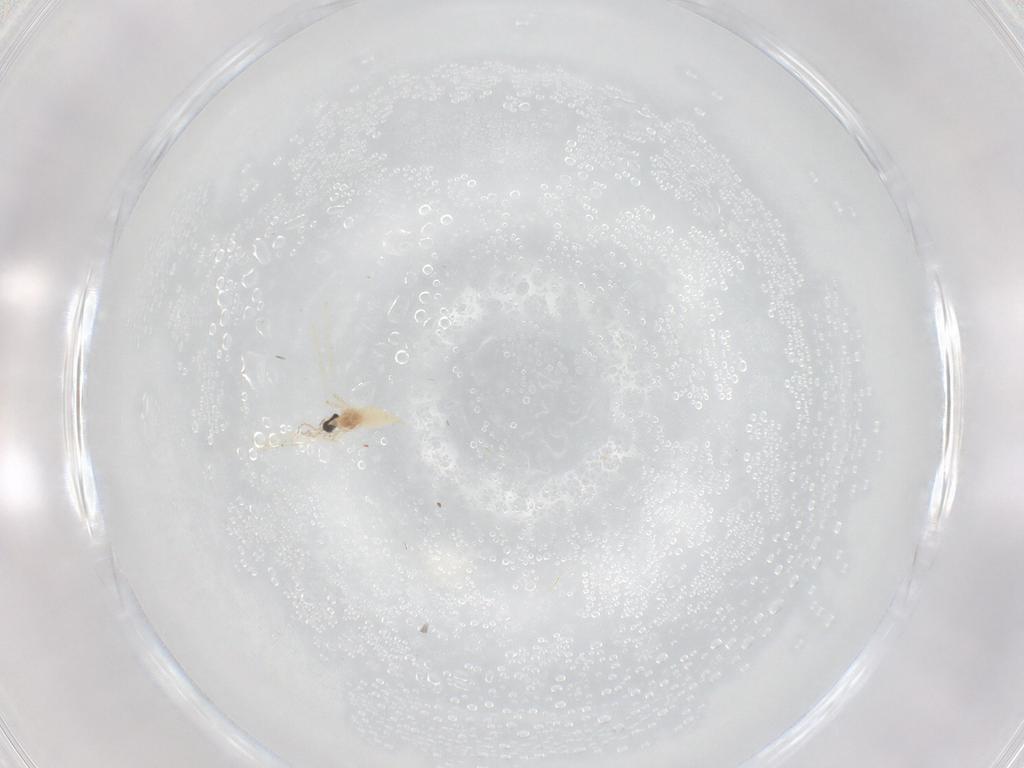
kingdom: Animalia
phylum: Arthropoda
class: Insecta
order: Diptera
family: Cecidomyiidae
